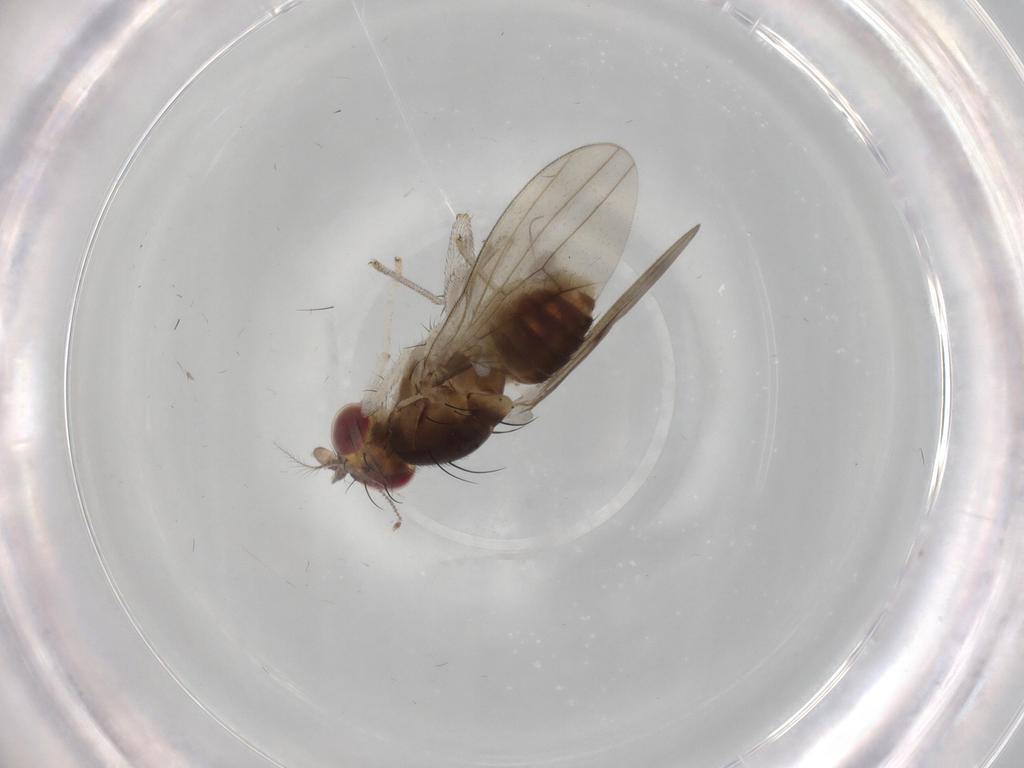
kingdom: Animalia
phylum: Arthropoda
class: Insecta
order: Diptera
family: Cecidomyiidae
